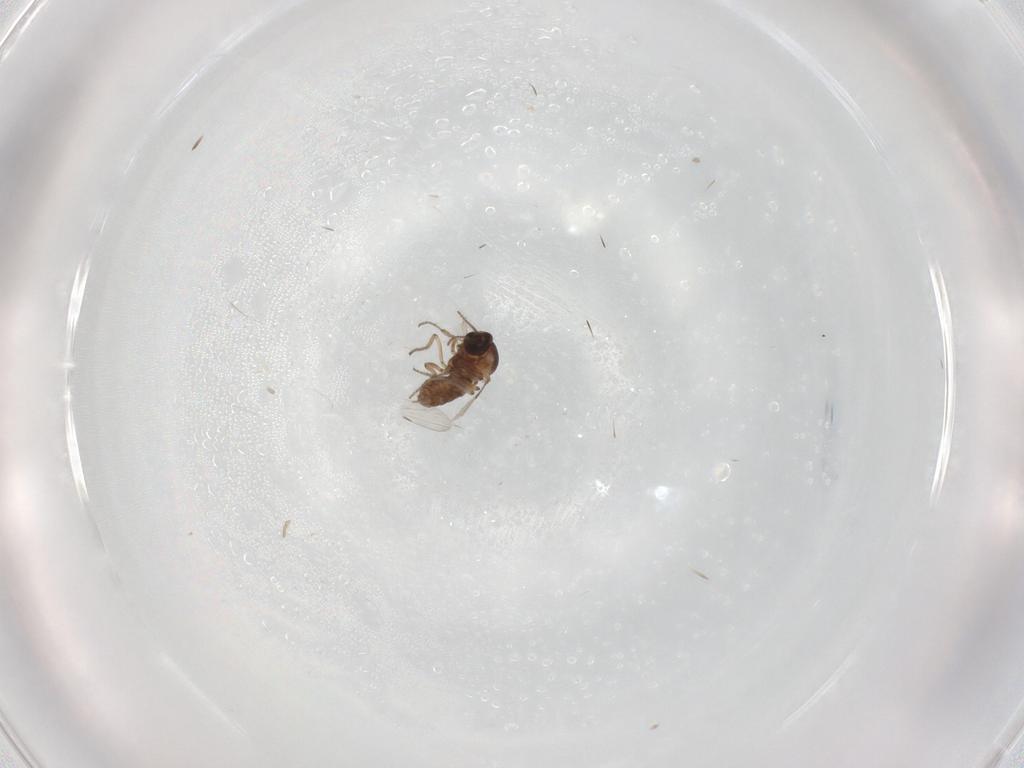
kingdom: Animalia
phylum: Arthropoda
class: Insecta
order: Diptera
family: Ceratopogonidae
